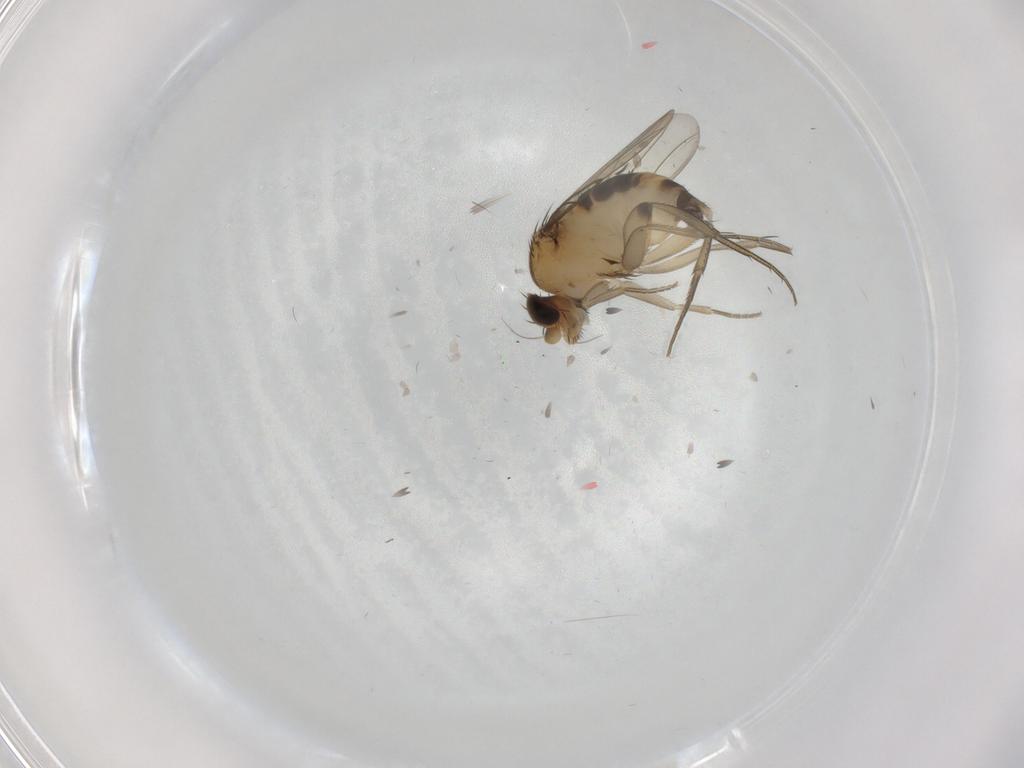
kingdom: Animalia
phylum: Arthropoda
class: Insecta
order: Diptera
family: Phoridae
